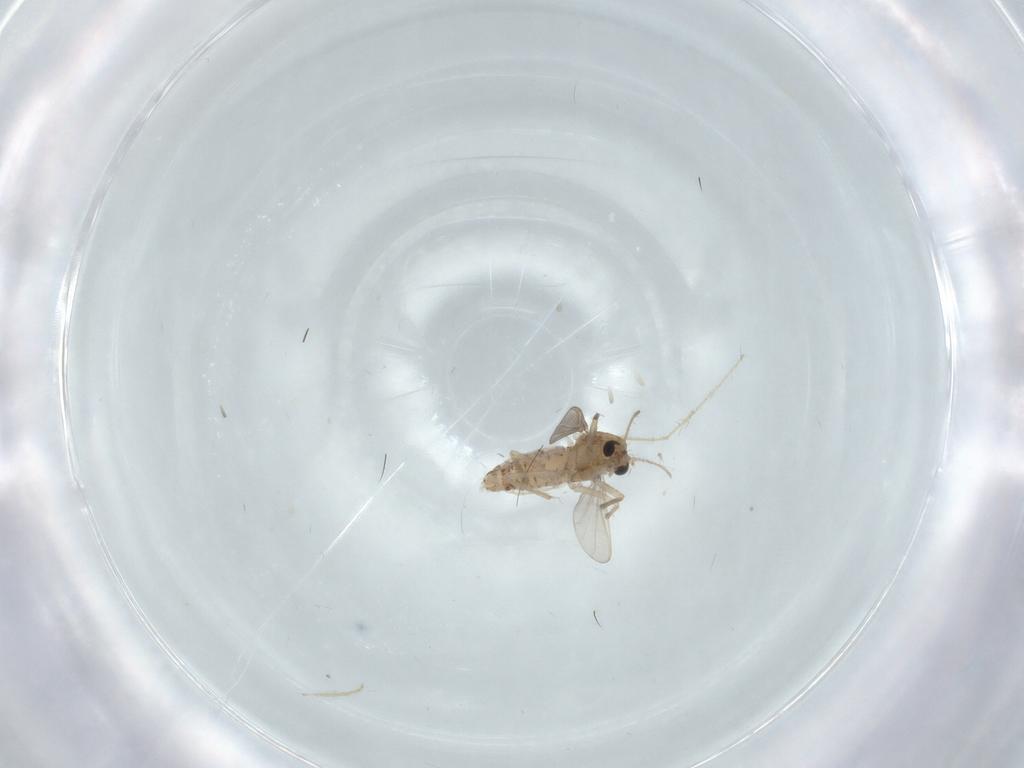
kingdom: Animalia
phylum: Arthropoda
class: Insecta
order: Diptera
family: Chironomidae
